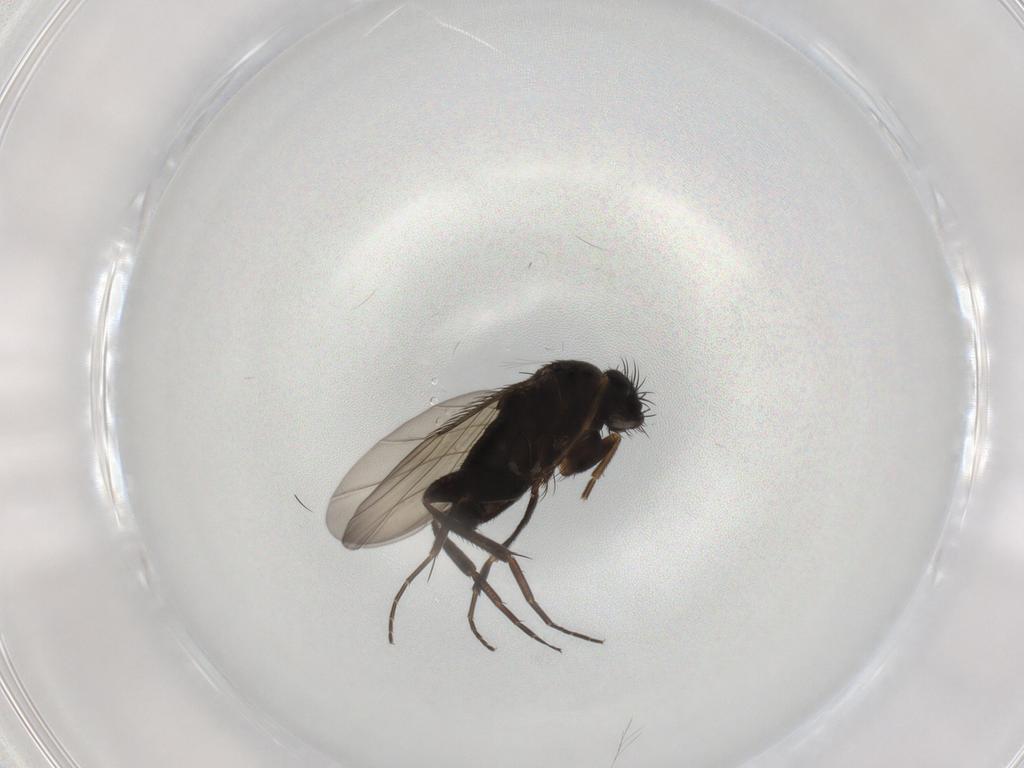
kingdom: Animalia
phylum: Arthropoda
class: Insecta
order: Diptera
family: Phoridae
